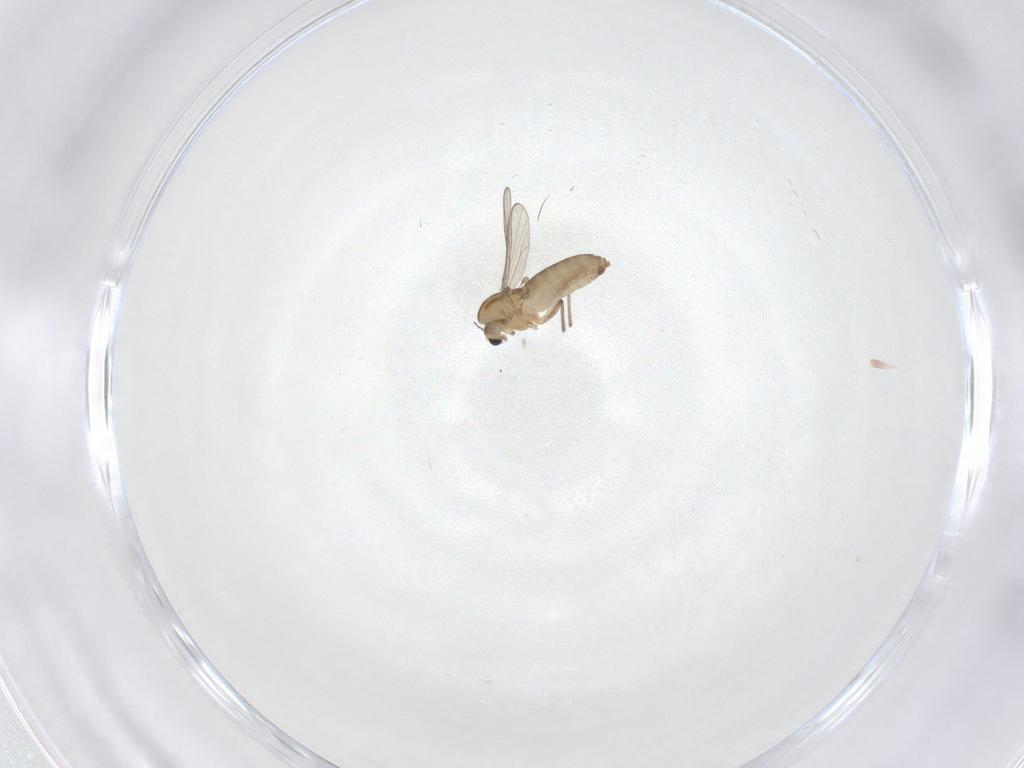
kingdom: Animalia
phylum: Arthropoda
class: Insecta
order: Diptera
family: Chironomidae
